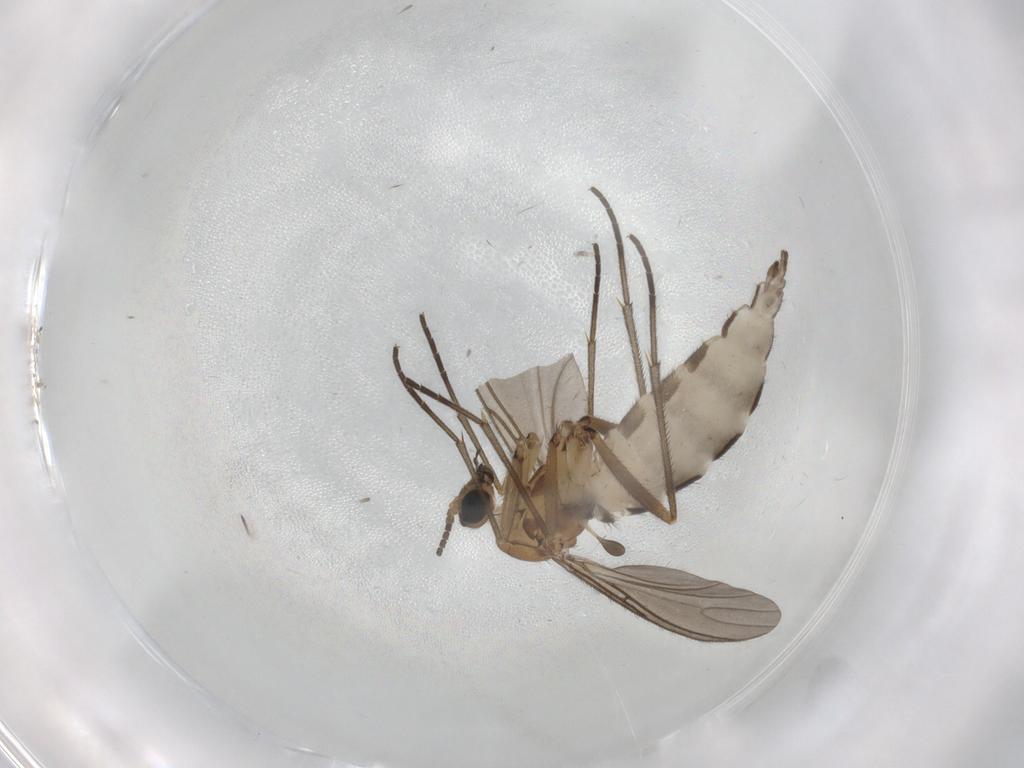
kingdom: Animalia
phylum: Arthropoda
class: Insecta
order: Diptera
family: Sciaridae
